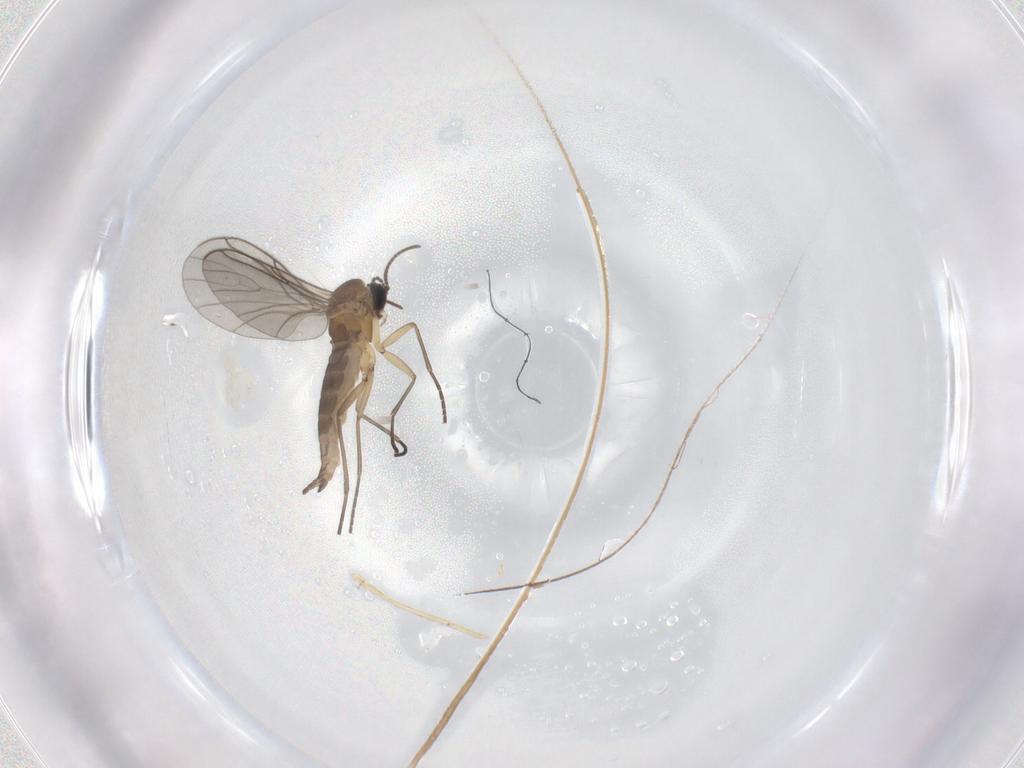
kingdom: Animalia
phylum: Arthropoda
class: Insecta
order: Diptera
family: Sciaridae
